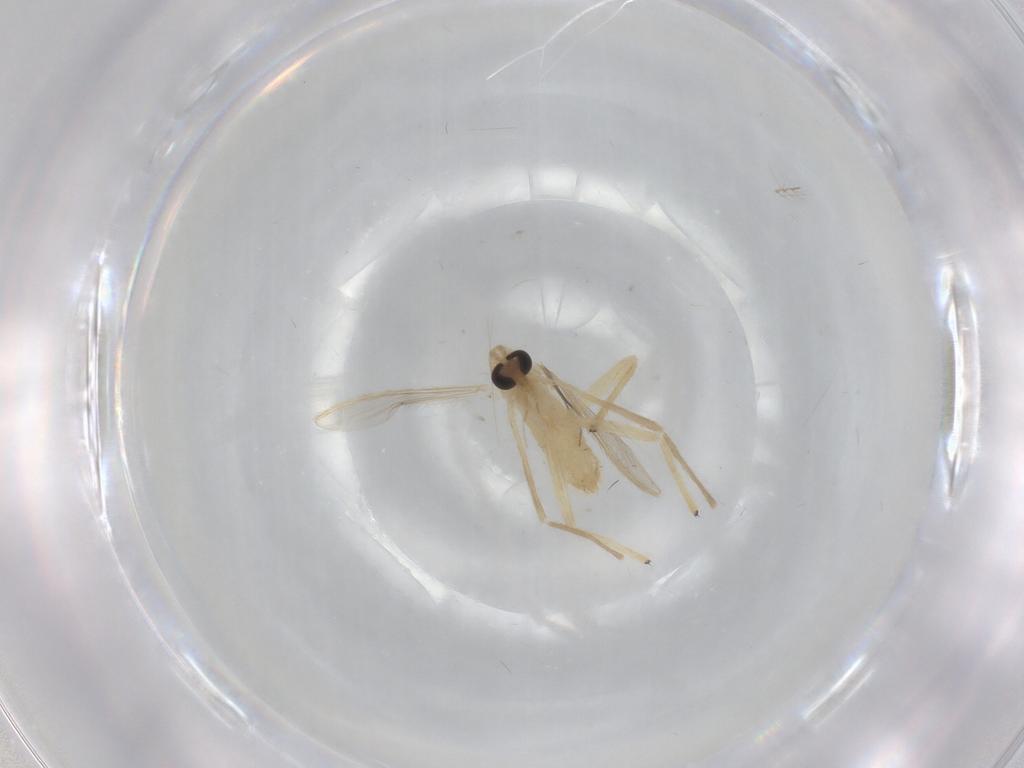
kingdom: Animalia
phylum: Arthropoda
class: Insecta
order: Diptera
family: Chironomidae
